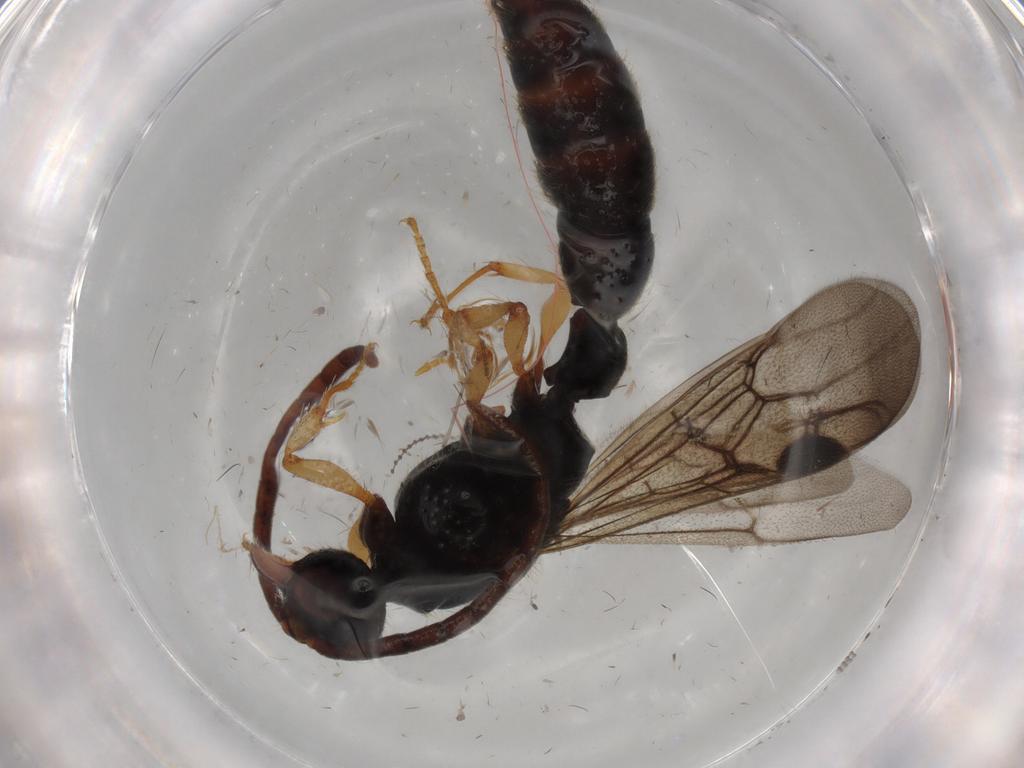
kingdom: Animalia
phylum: Arthropoda
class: Insecta
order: Hymenoptera
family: Formicidae
